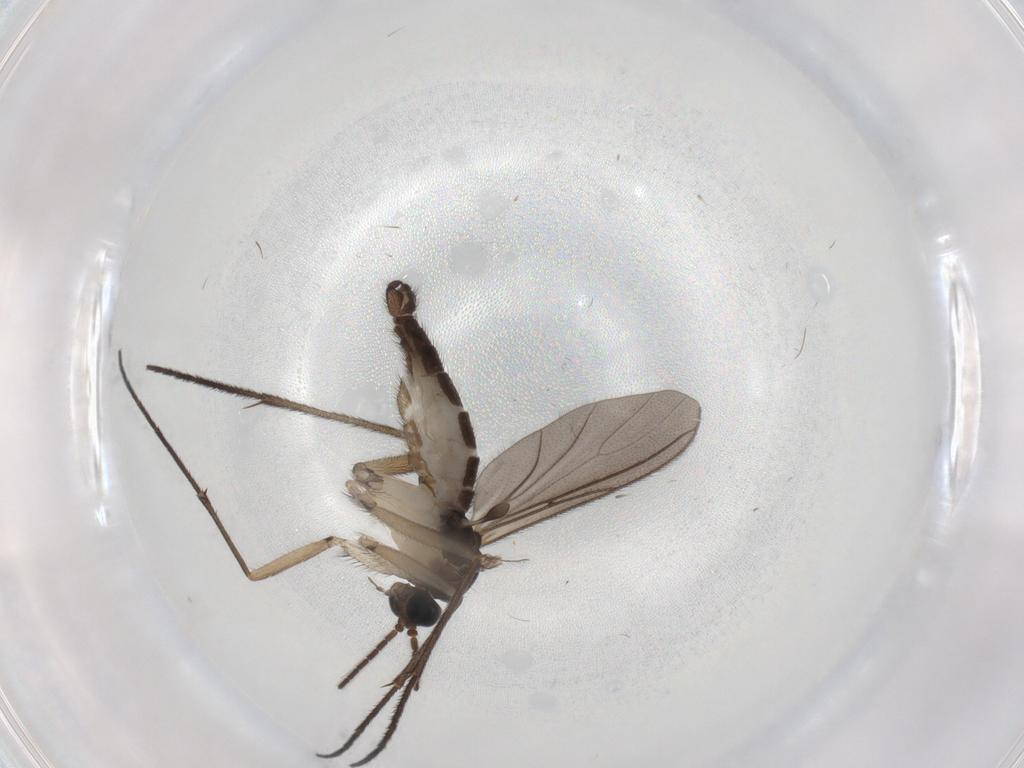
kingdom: Animalia
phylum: Arthropoda
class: Insecta
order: Diptera
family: Sciaridae
